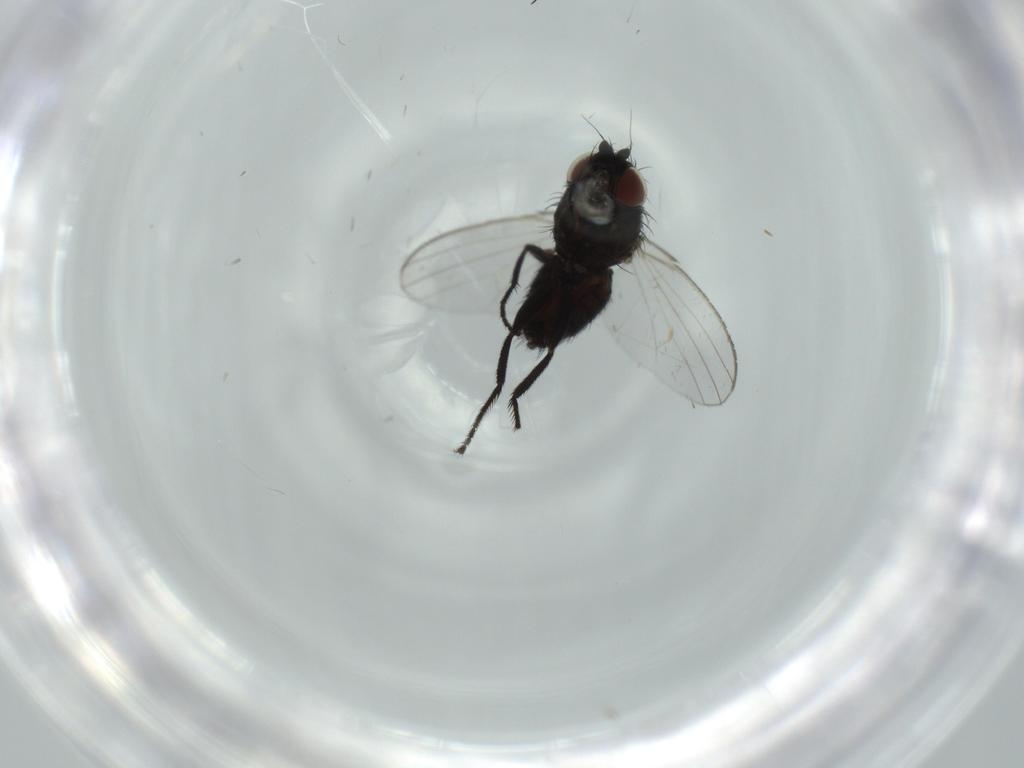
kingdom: Animalia
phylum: Arthropoda
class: Insecta
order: Diptera
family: Milichiidae
